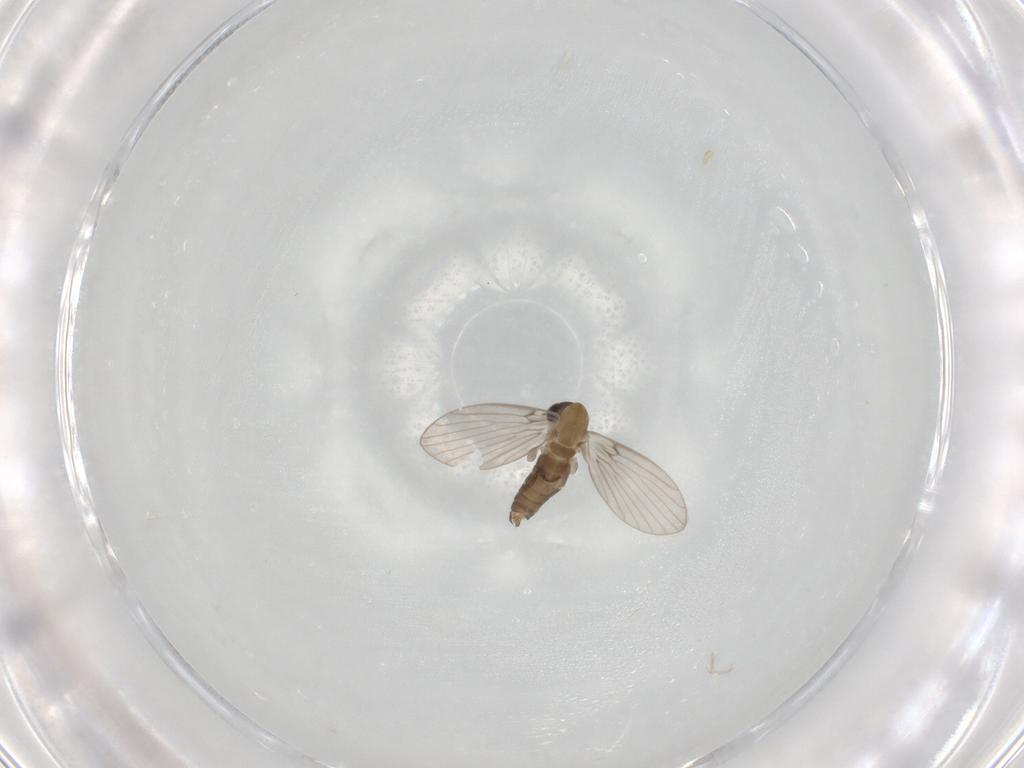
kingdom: Animalia
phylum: Arthropoda
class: Insecta
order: Diptera
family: Psychodidae
